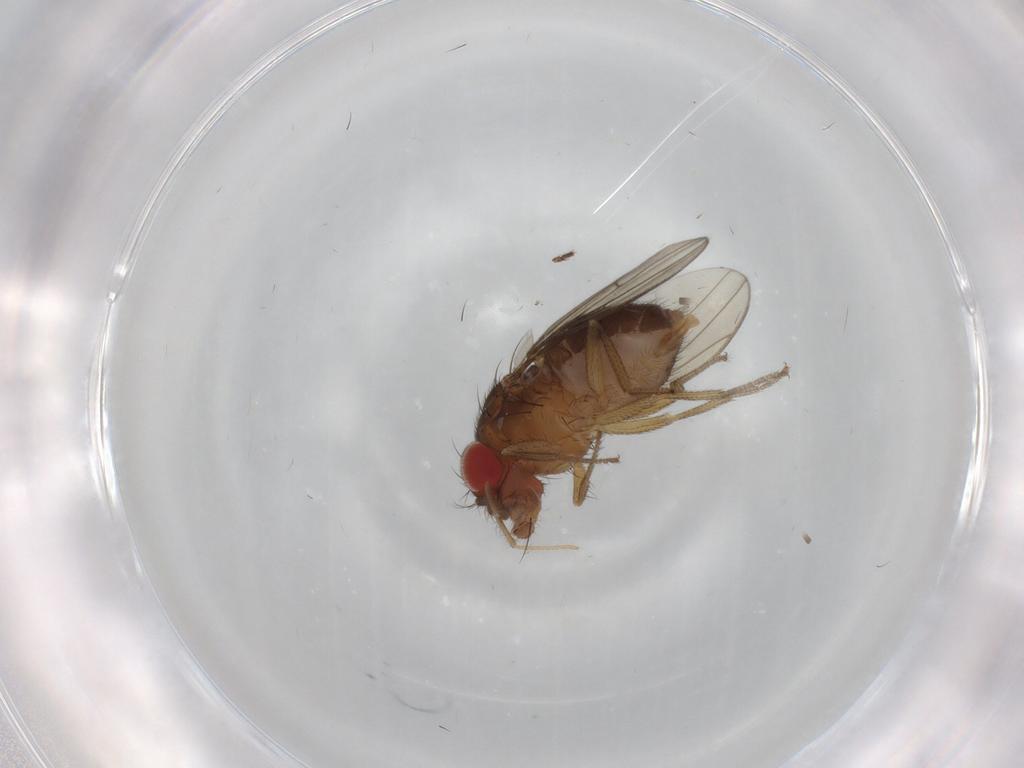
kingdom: Animalia
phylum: Arthropoda
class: Insecta
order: Diptera
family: Drosophilidae
